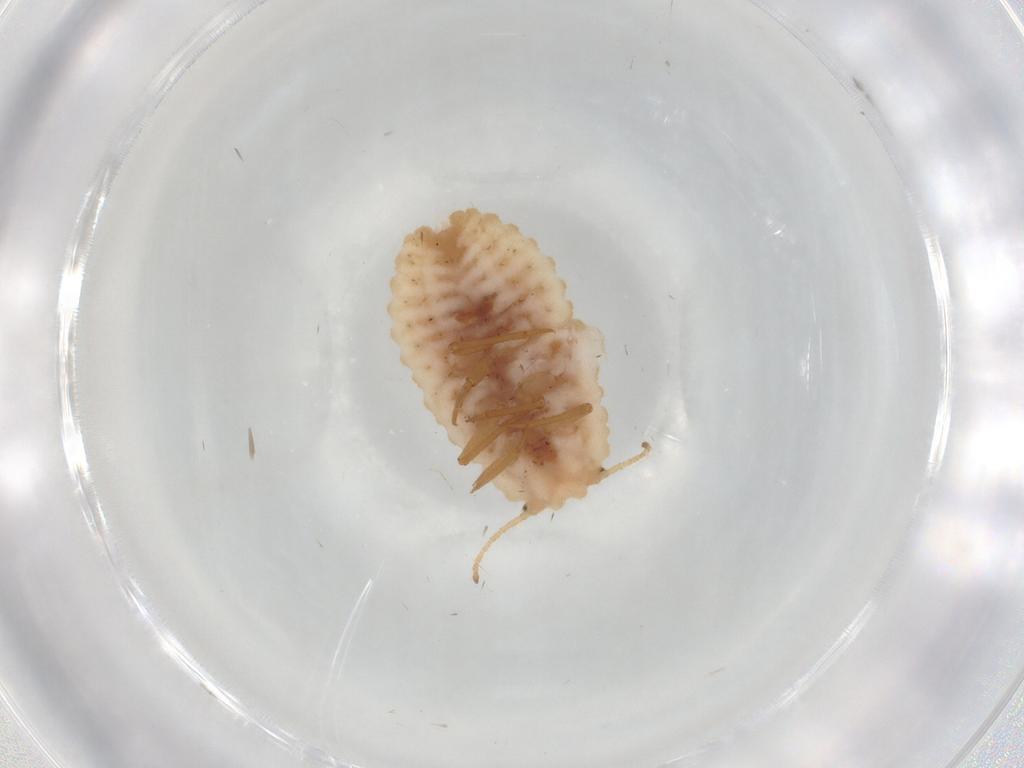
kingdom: Animalia
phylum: Arthropoda
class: Insecta
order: Hemiptera
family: Coccoidea_incertae_sedis
